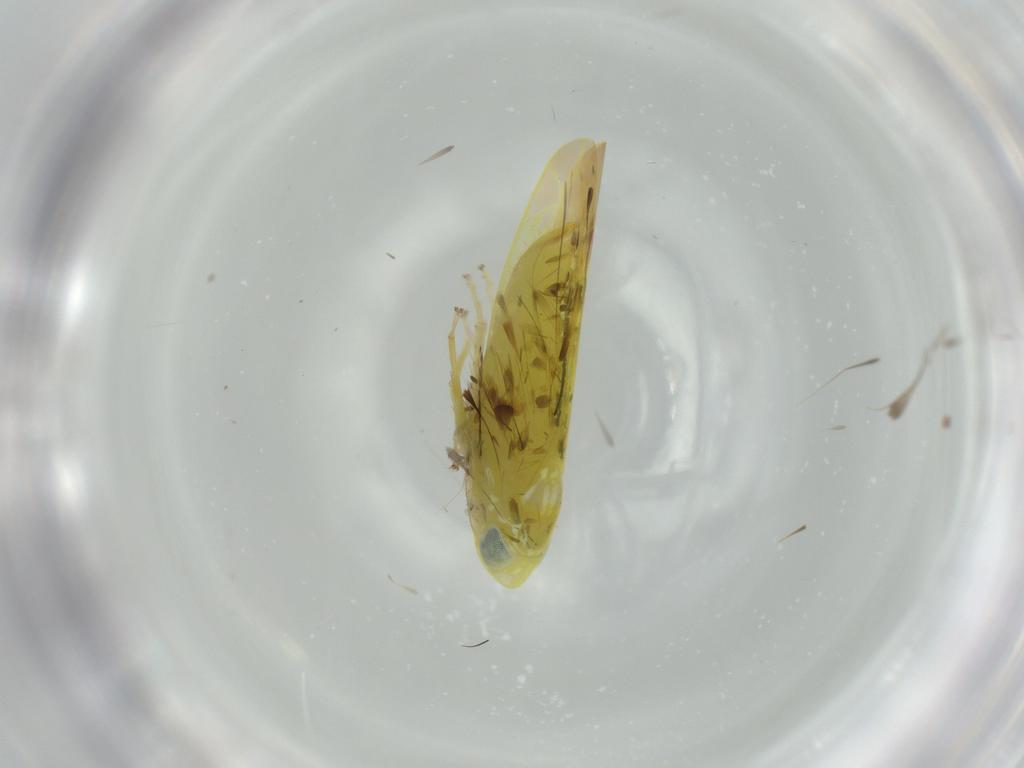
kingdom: Animalia
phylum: Arthropoda
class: Insecta
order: Hemiptera
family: Cicadellidae
